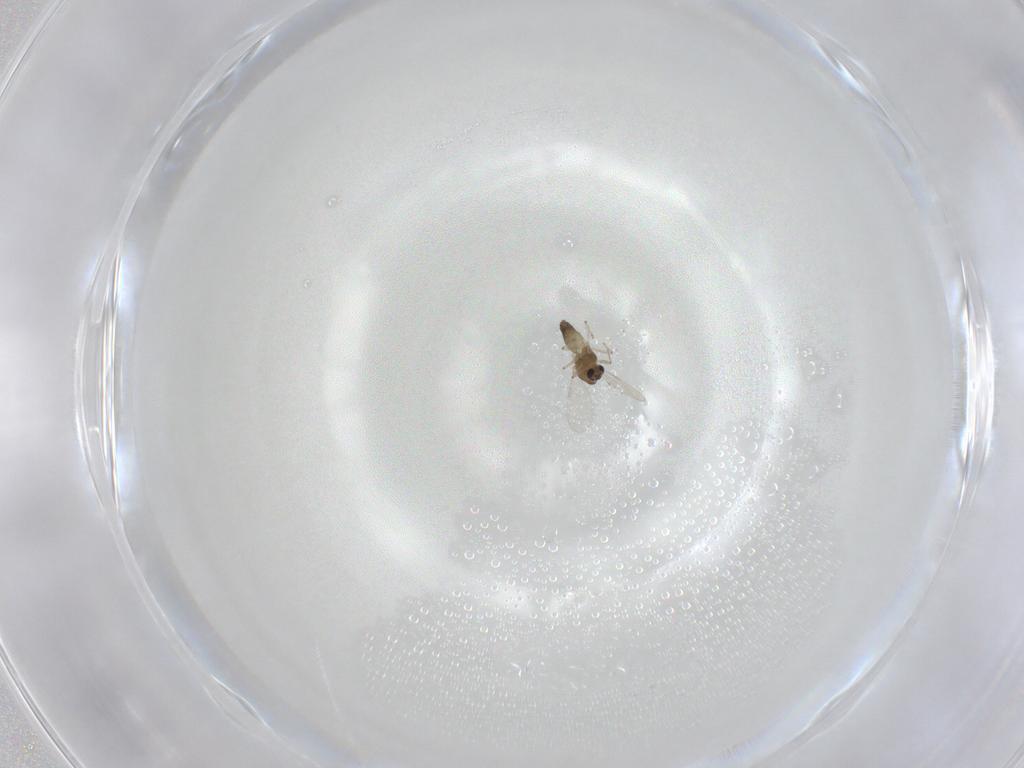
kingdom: Animalia
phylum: Arthropoda
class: Insecta
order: Diptera
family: Chironomidae
